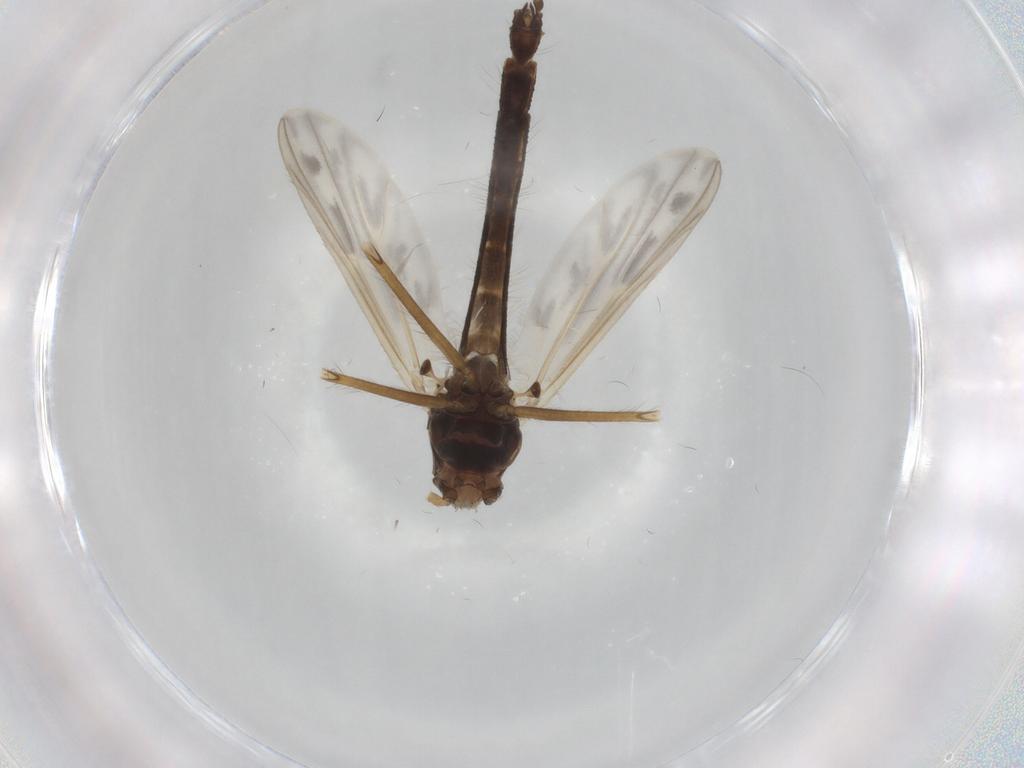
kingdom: Animalia
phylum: Arthropoda
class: Insecta
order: Diptera
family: Chironomidae
